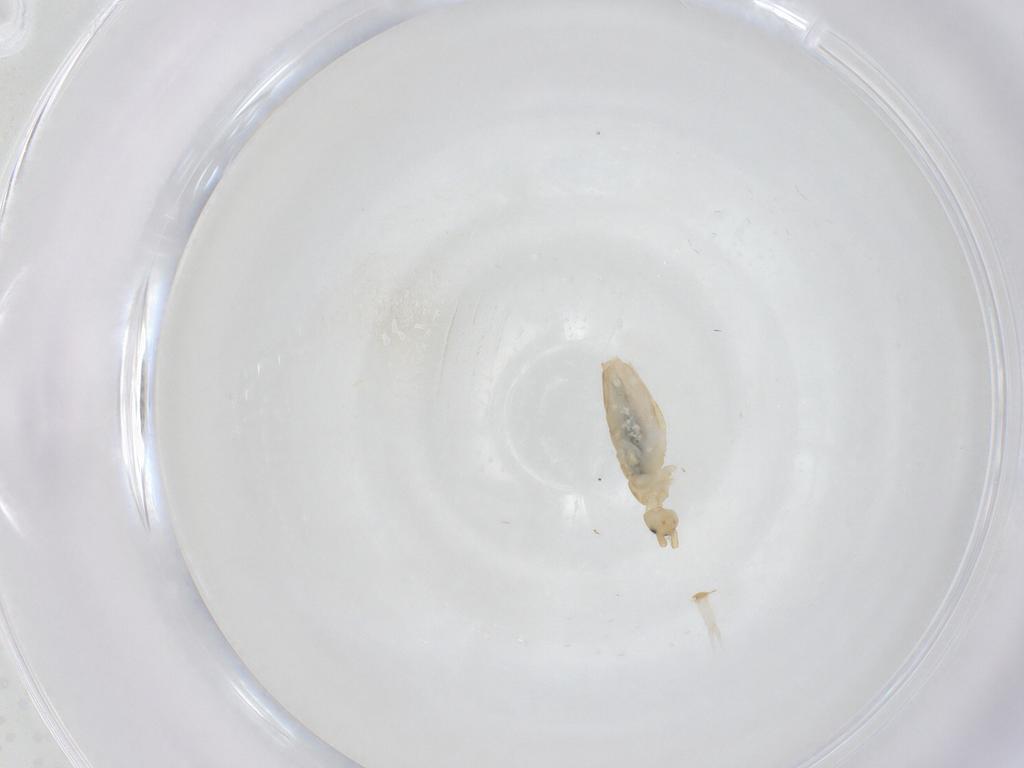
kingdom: Animalia
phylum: Arthropoda
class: Collembola
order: Entomobryomorpha
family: Entomobryidae
